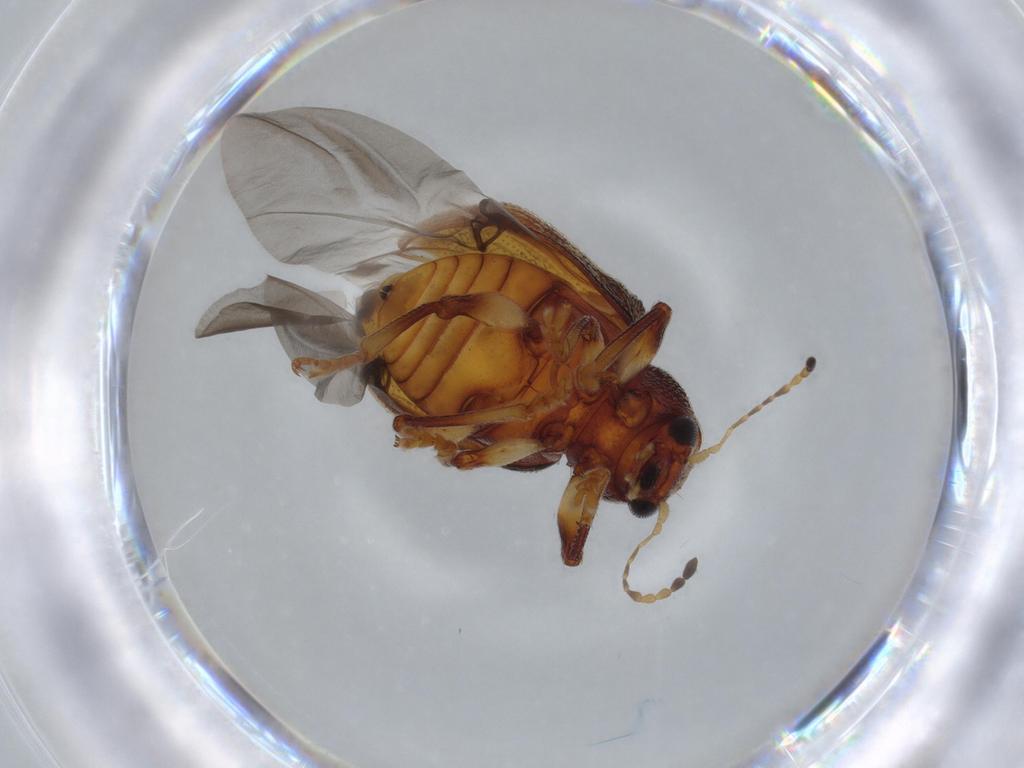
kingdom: Animalia
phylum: Arthropoda
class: Insecta
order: Coleoptera
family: Chrysomelidae
